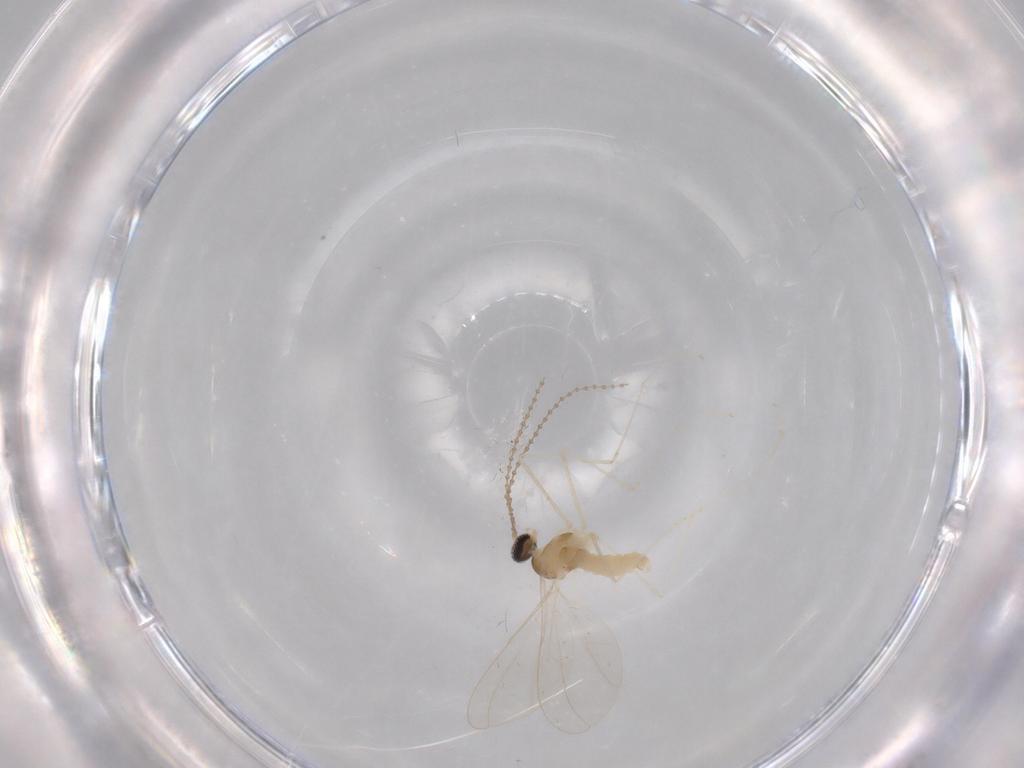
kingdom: Animalia
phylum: Arthropoda
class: Insecta
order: Diptera
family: Cecidomyiidae
